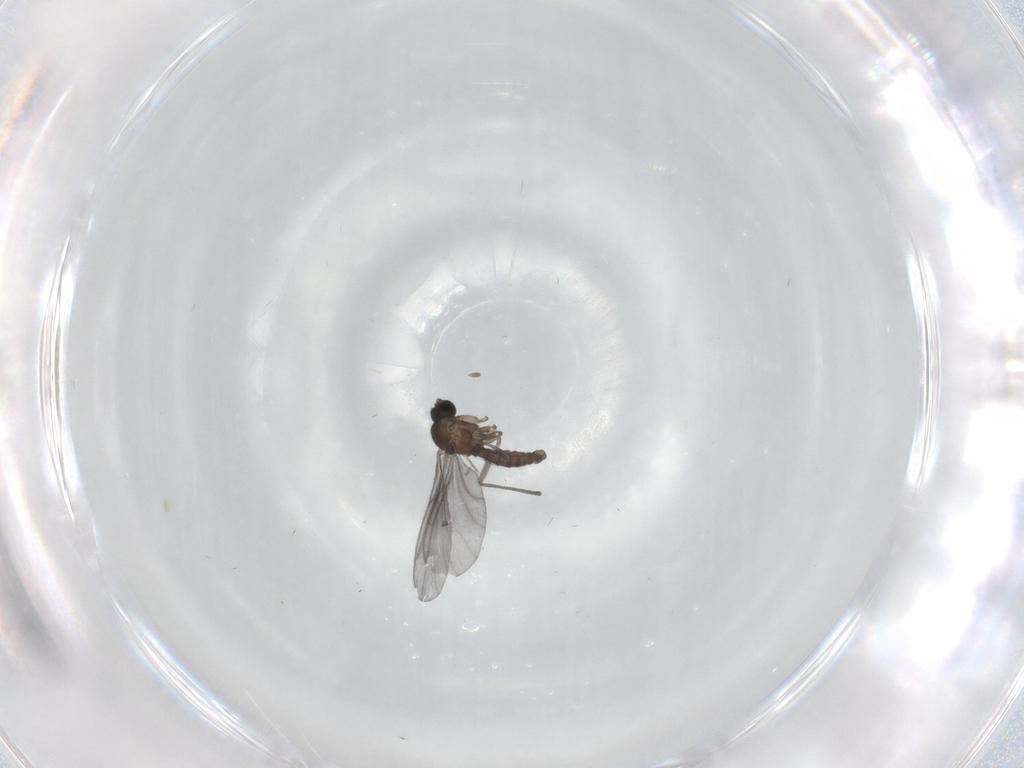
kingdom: Animalia
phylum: Arthropoda
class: Insecta
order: Diptera
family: Sciaridae
